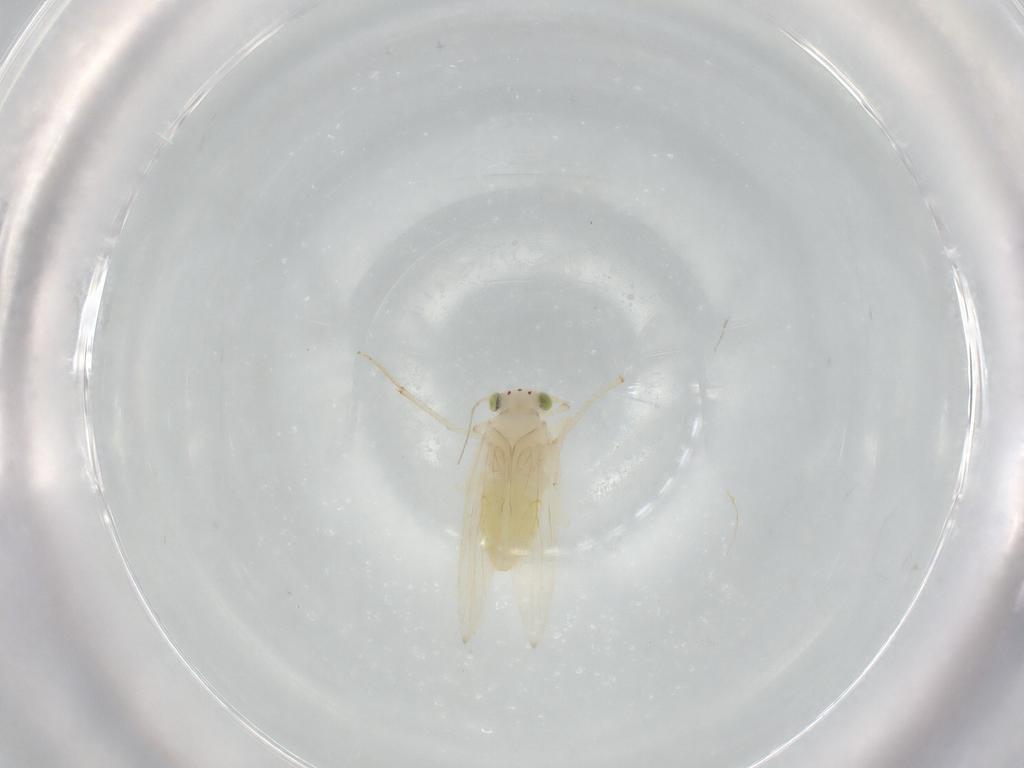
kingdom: Animalia
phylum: Arthropoda
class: Insecta
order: Psocodea
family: Lepidopsocidae
